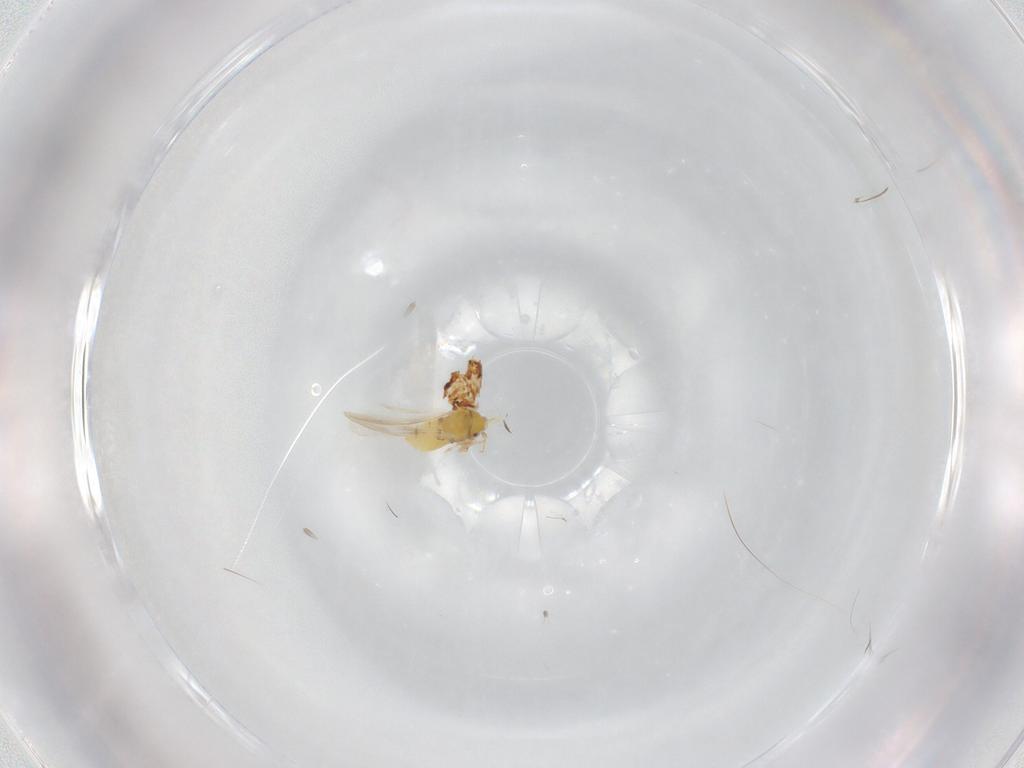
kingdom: Animalia
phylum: Arthropoda
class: Insecta
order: Hemiptera
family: Aleyrodidae
